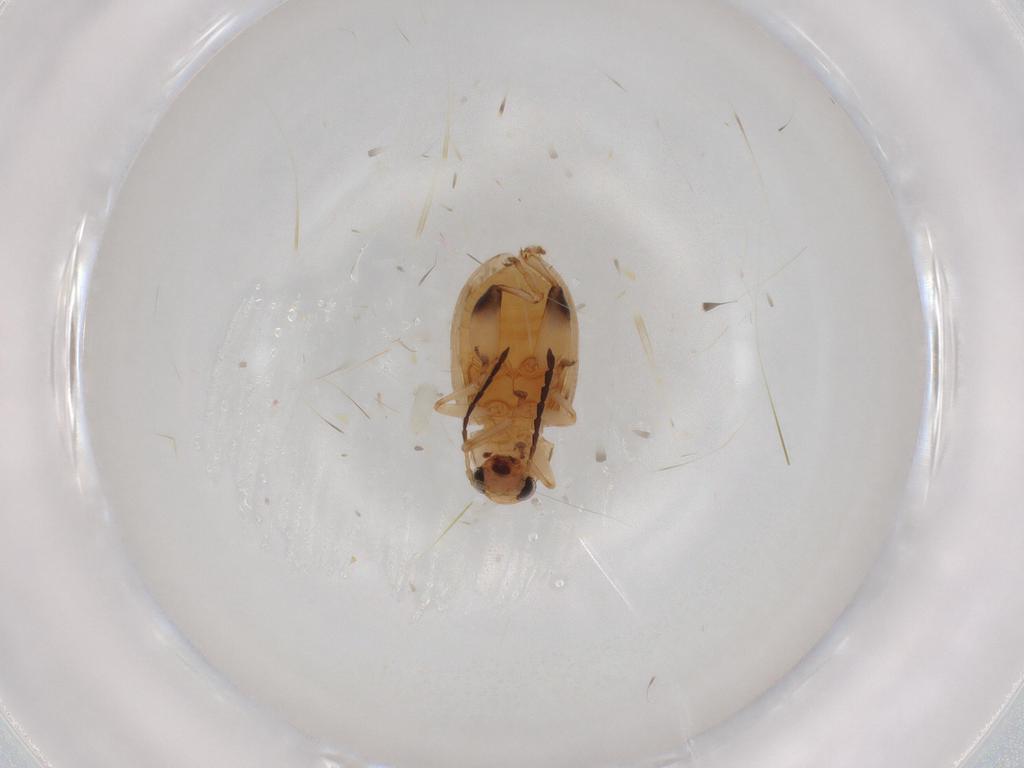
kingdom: Animalia
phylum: Arthropoda
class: Insecta
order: Coleoptera
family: Chrysomelidae
